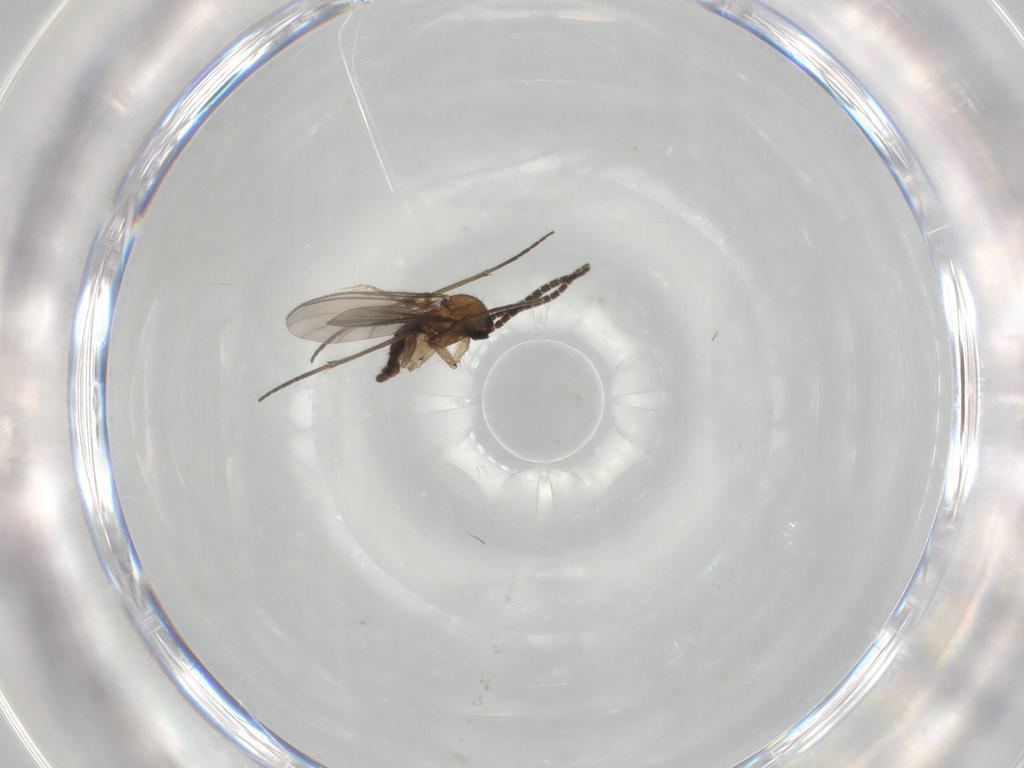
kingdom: Animalia
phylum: Arthropoda
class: Insecta
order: Diptera
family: Ceratopogonidae
